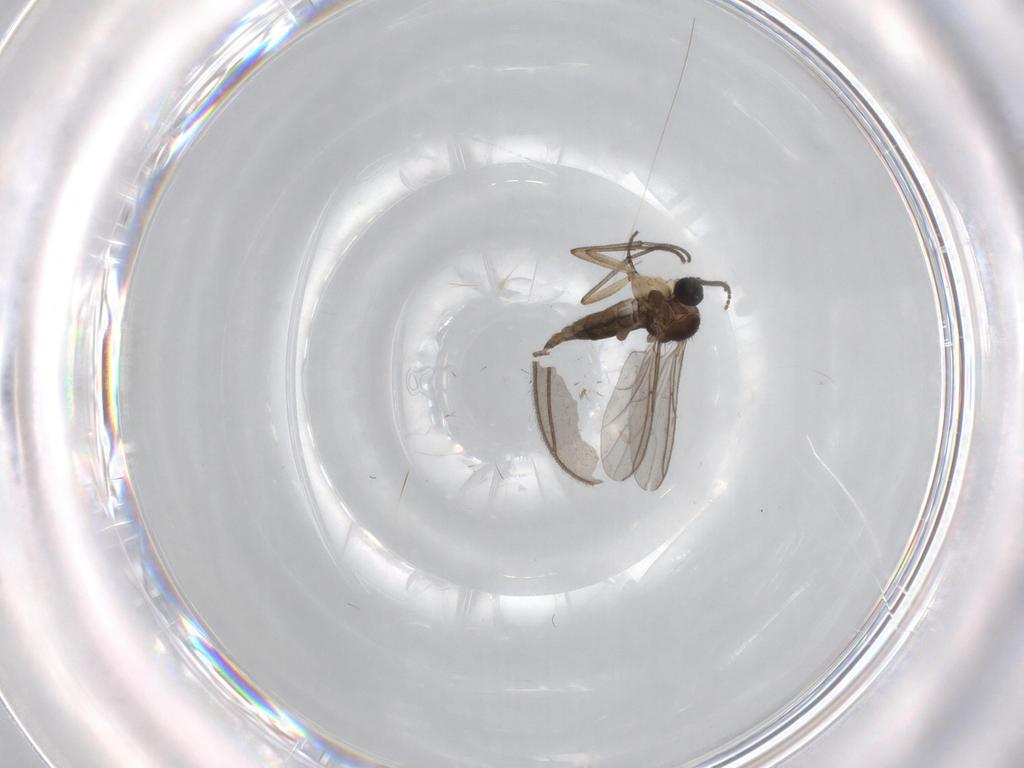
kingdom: Animalia
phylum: Arthropoda
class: Insecta
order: Diptera
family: Sciaridae
